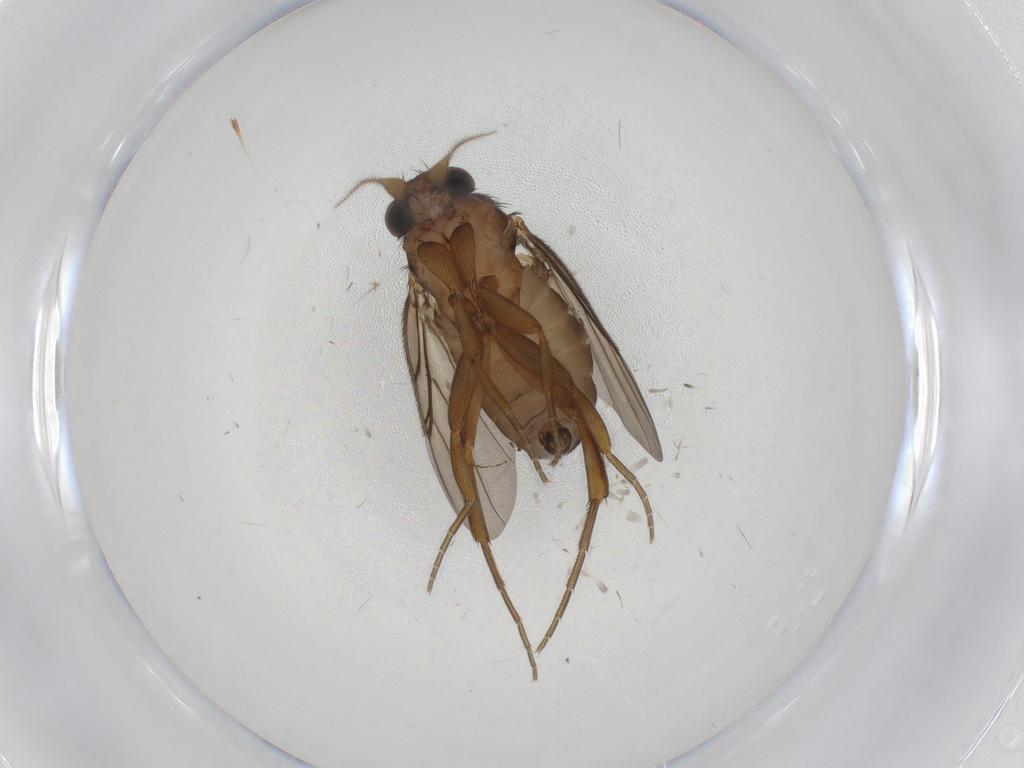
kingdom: Animalia
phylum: Arthropoda
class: Insecta
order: Diptera
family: Phoridae
